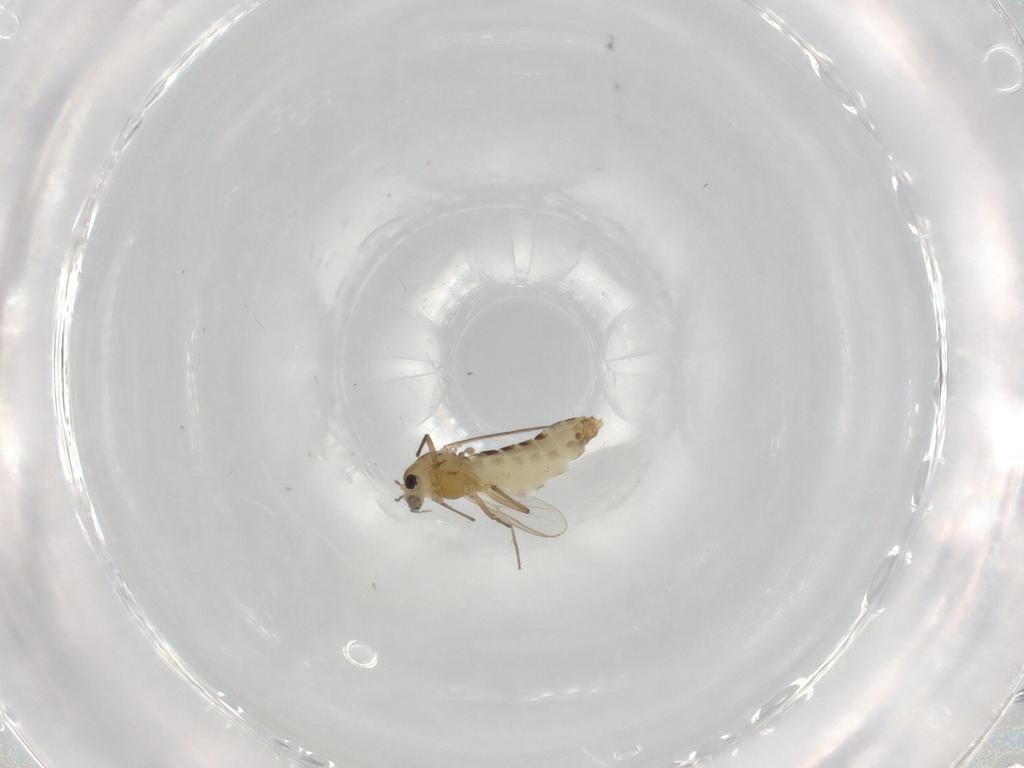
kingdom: Animalia
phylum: Arthropoda
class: Insecta
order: Diptera
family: Chironomidae
